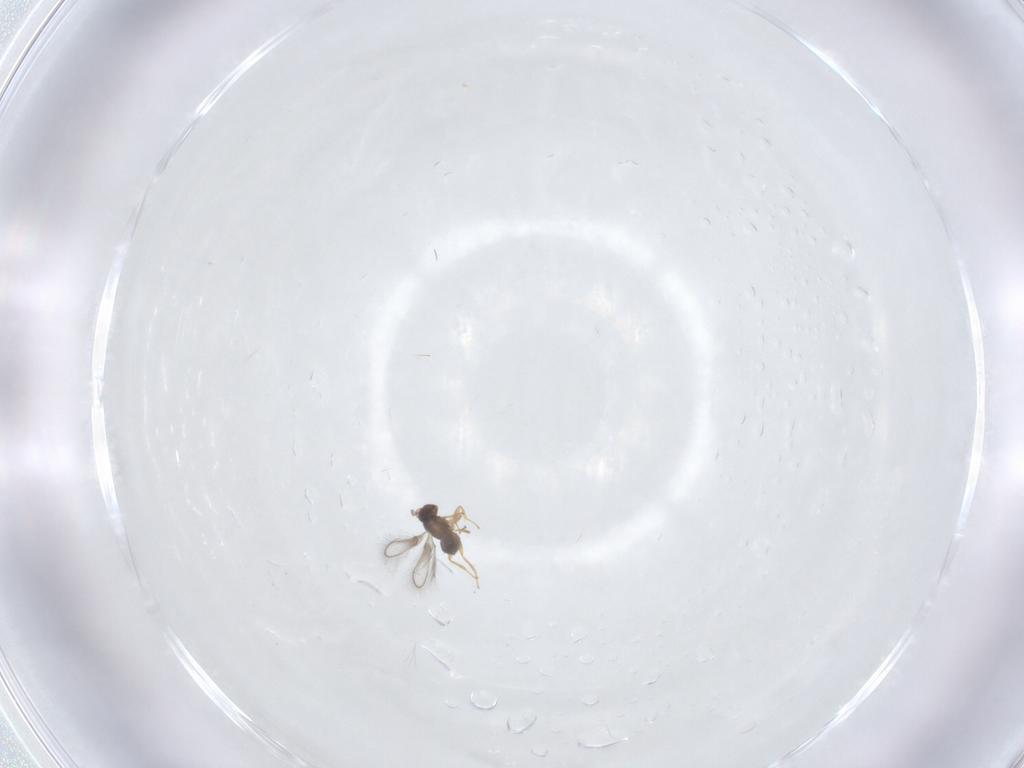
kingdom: Animalia
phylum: Arthropoda
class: Insecta
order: Hymenoptera
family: Mymaridae
